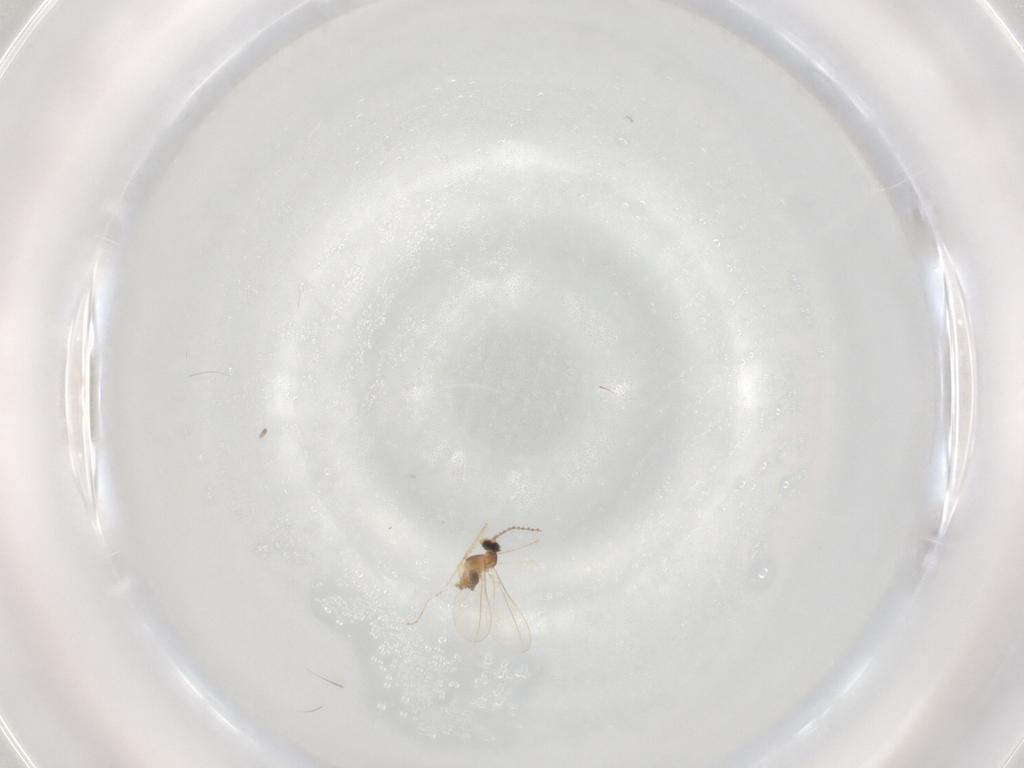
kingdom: Animalia
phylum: Arthropoda
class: Insecta
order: Diptera
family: Cecidomyiidae
